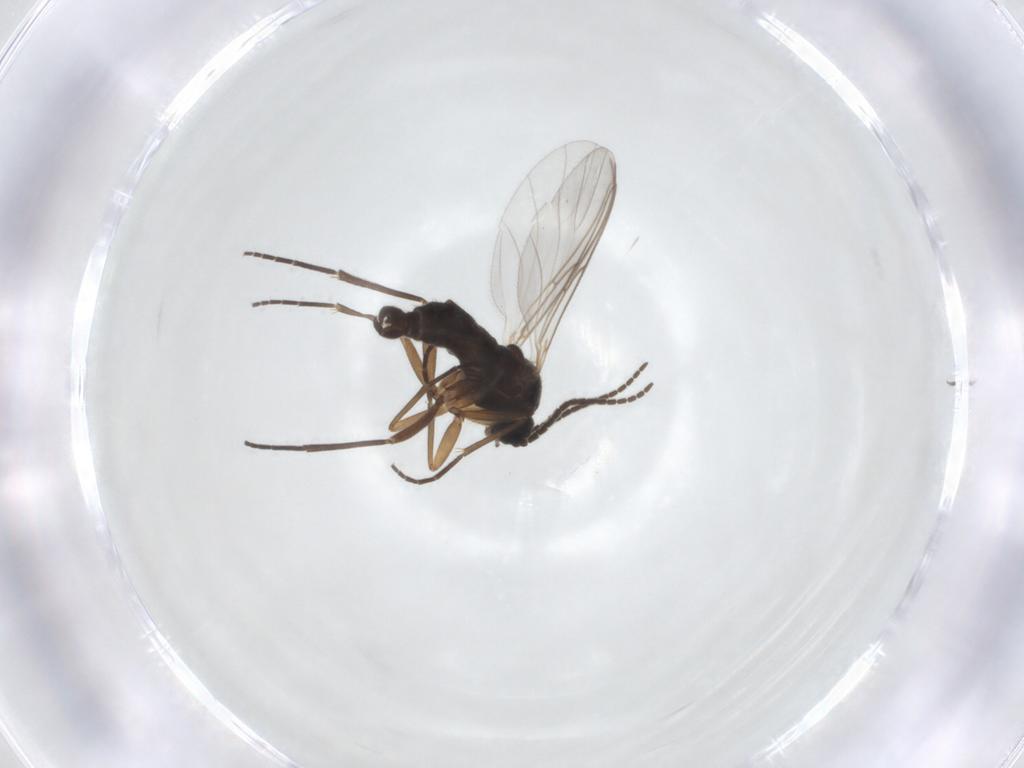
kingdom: Animalia
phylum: Arthropoda
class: Insecta
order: Diptera
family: Sciaridae
